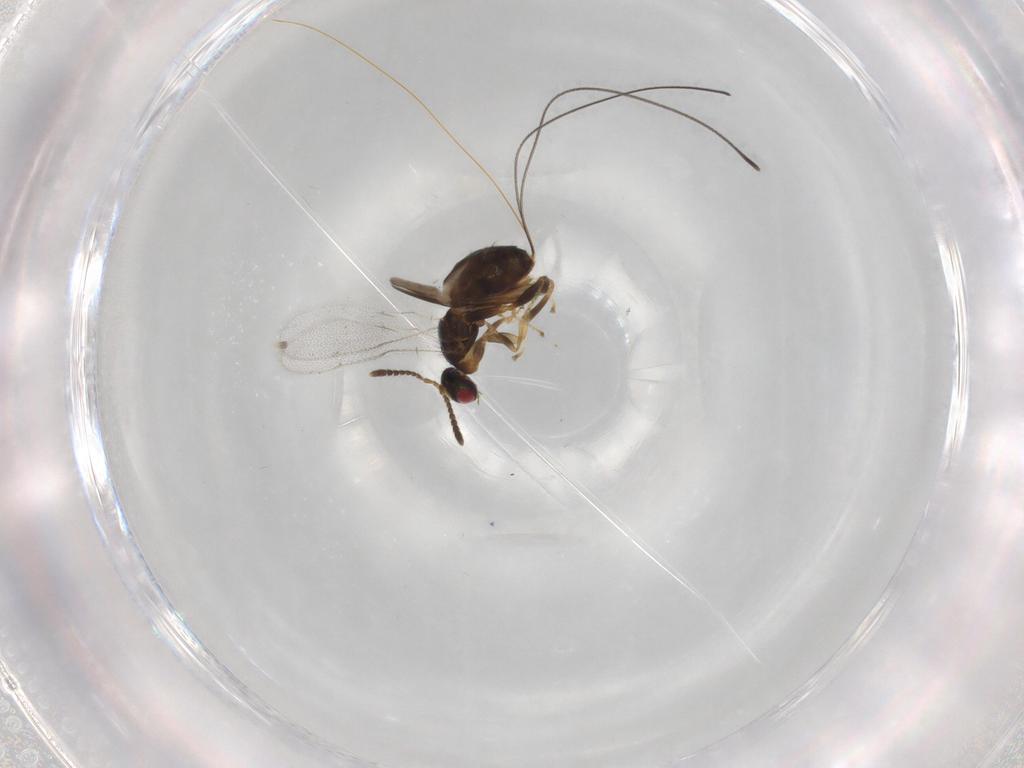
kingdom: Animalia
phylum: Arthropoda
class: Insecta
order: Hymenoptera
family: Torymidae
